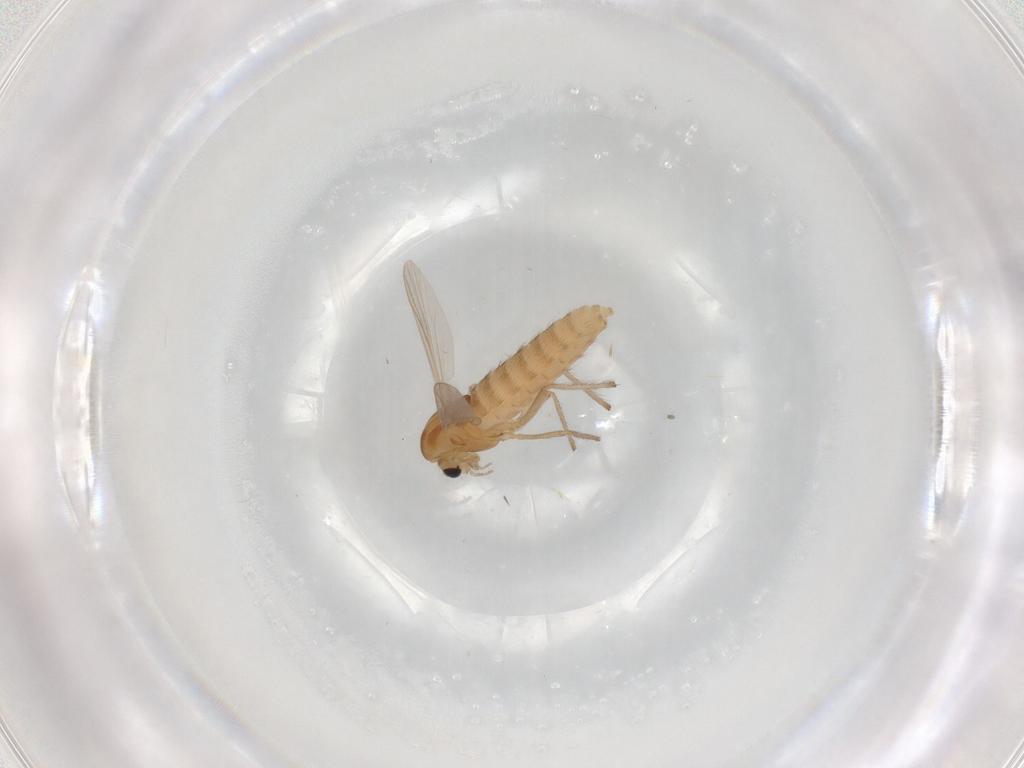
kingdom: Animalia
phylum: Arthropoda
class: Insecta
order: Diptera
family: Chironomidae
